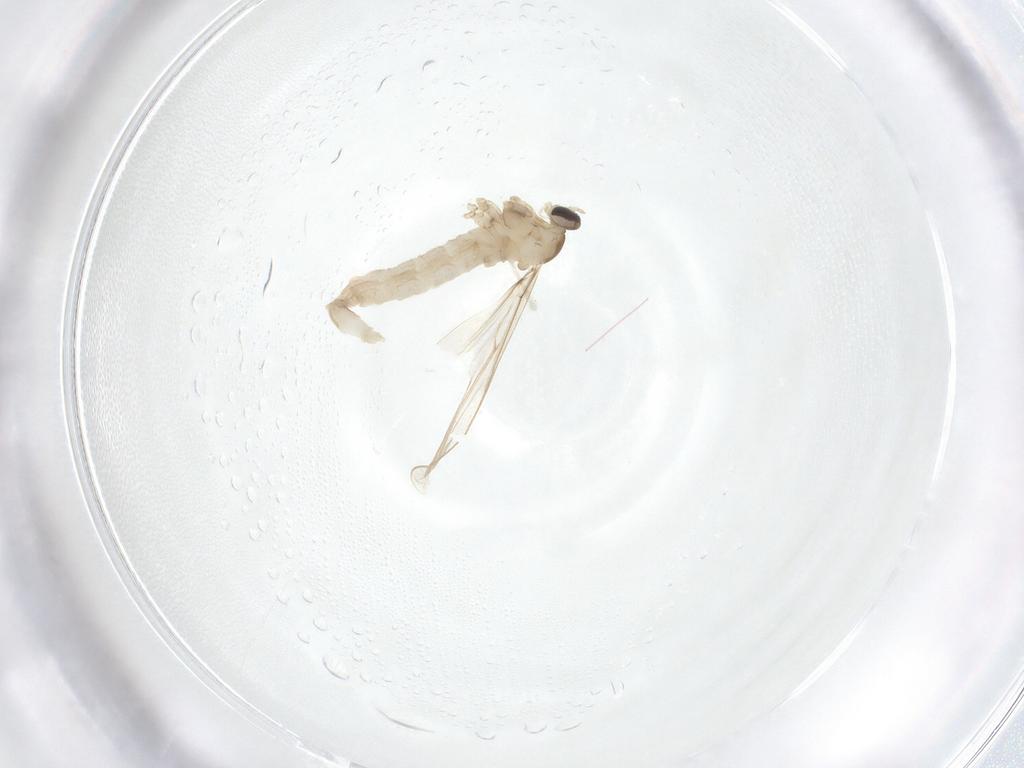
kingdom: Animalia
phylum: Arthropoda
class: Insecta
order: Diptera
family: Cecidomyiidae
